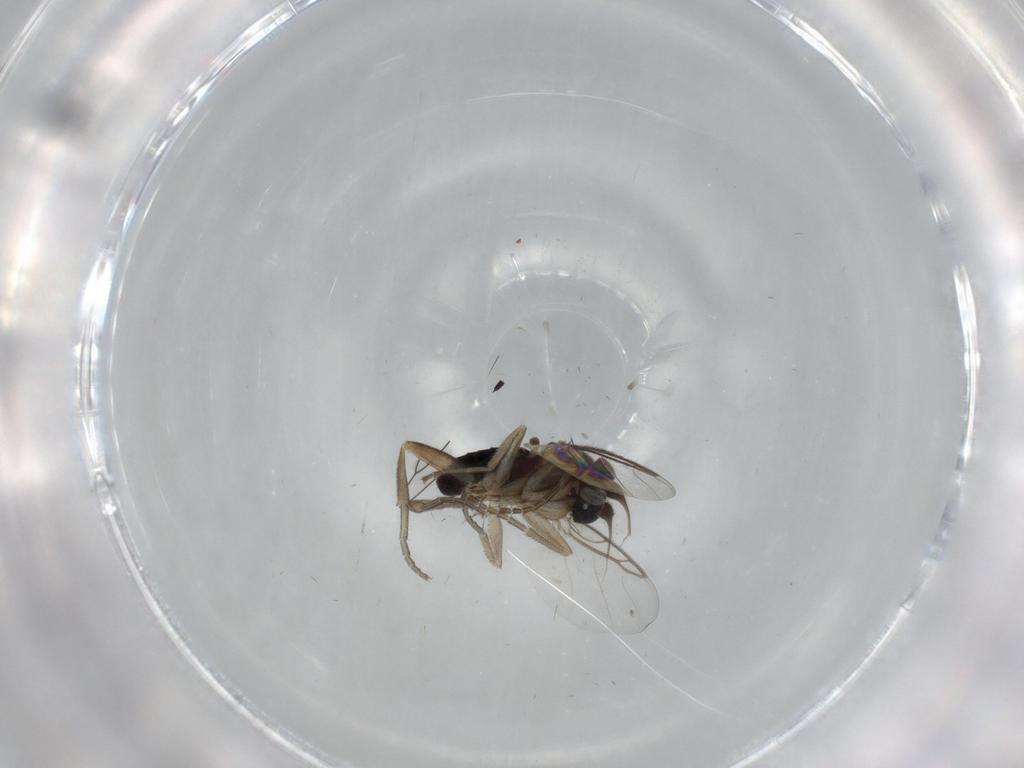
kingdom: Animalia
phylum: Arthropoda
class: Insecta
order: Diptera
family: Phoridae
